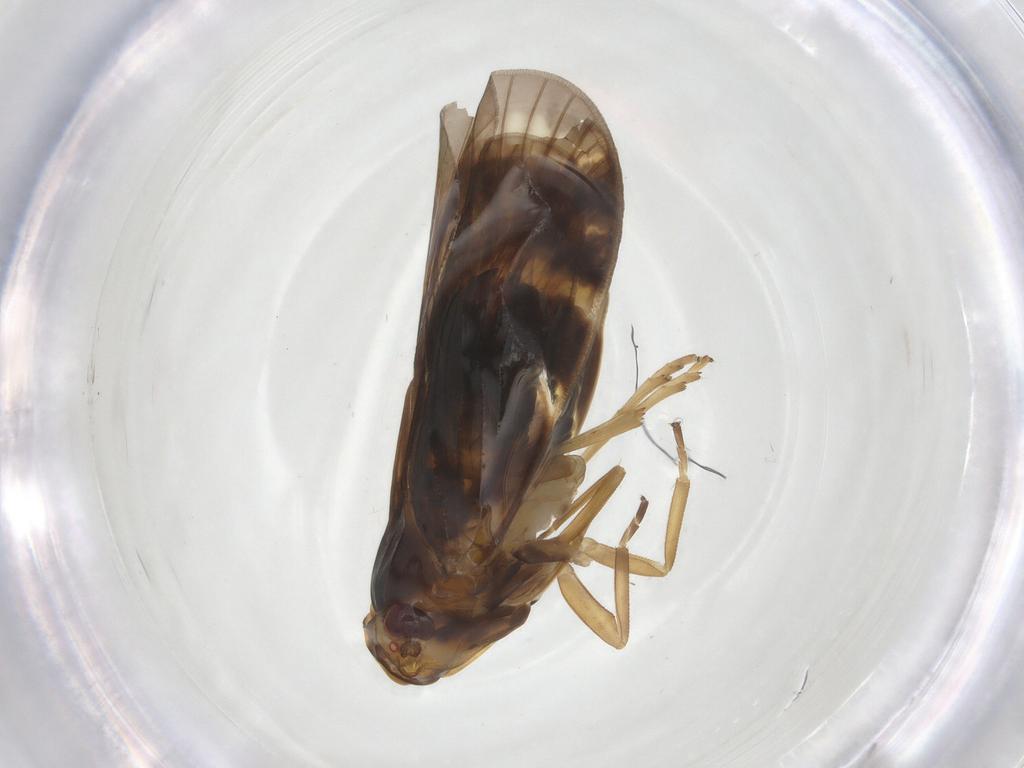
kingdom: Animalia
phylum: Arthropoda
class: Insecta
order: Hemiptera
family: Cixiidae
